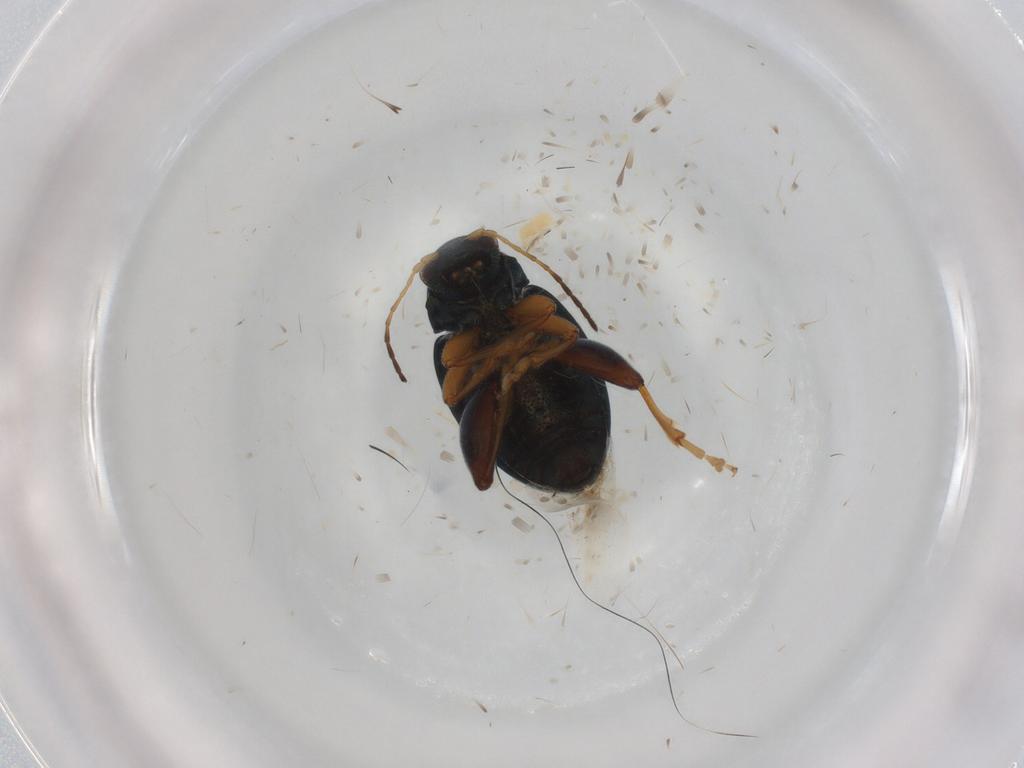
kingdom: Animalia
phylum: Arthropoda
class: Insecta
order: Coleoptera
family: Chrysomelidae
